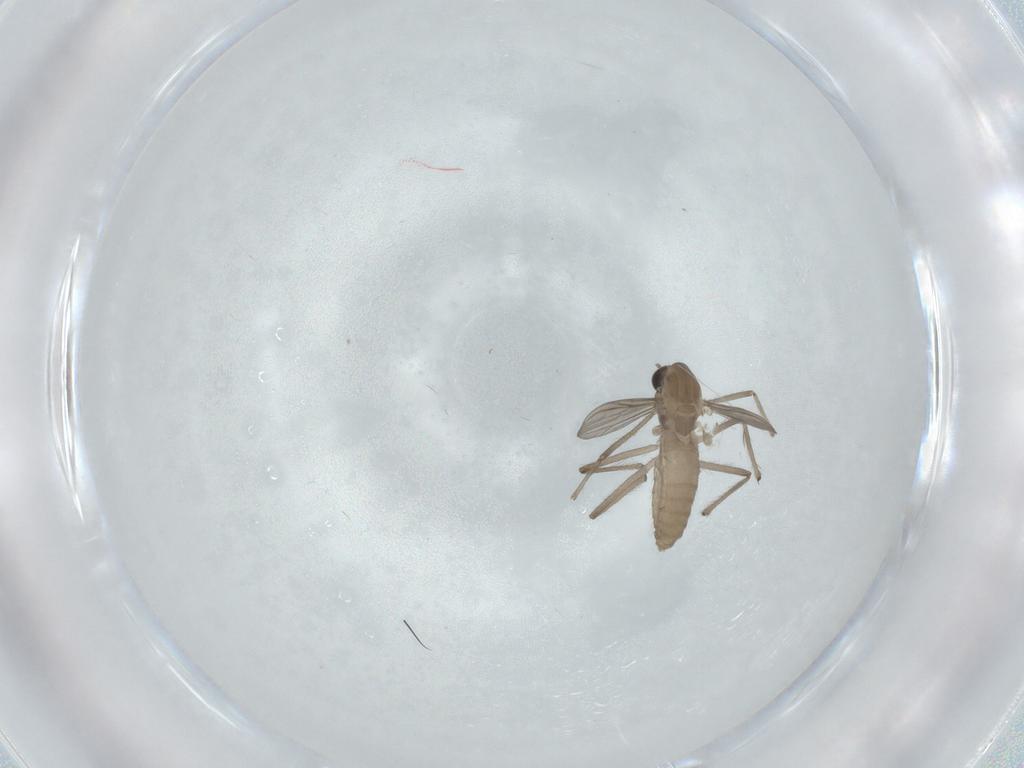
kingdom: Animalia
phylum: Arthropoda
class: Insecta
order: Diptera
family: Chironomidae
